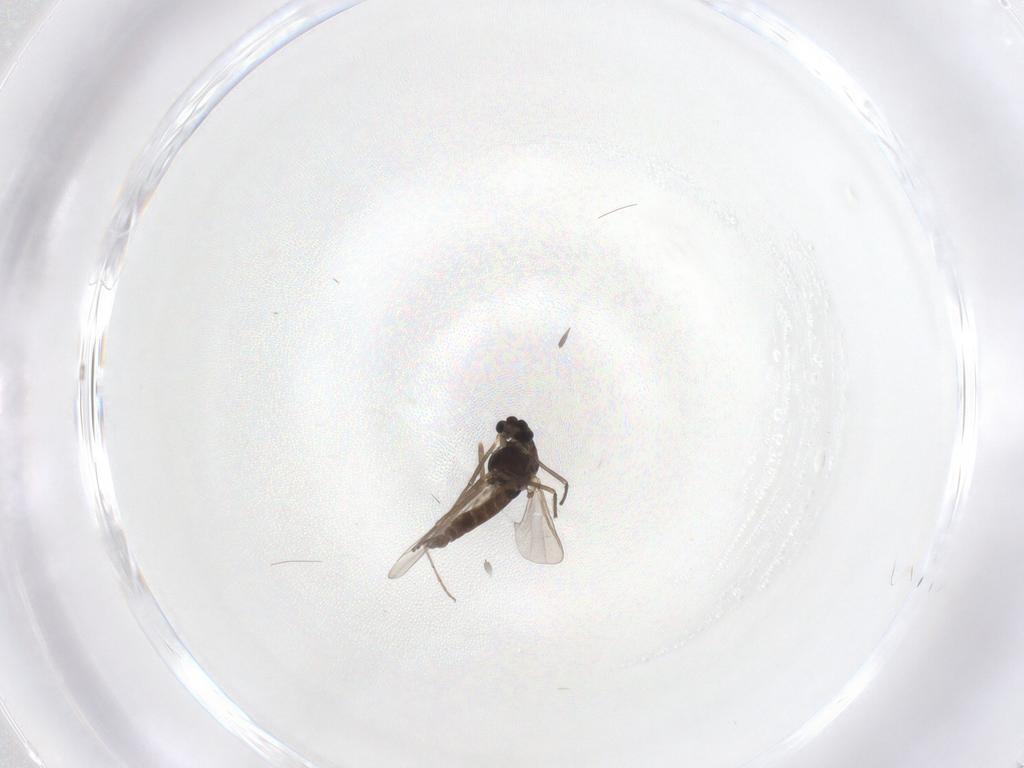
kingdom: Animalia
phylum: Arthropoda
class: Insecta
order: Diptera
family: Chironomidae
